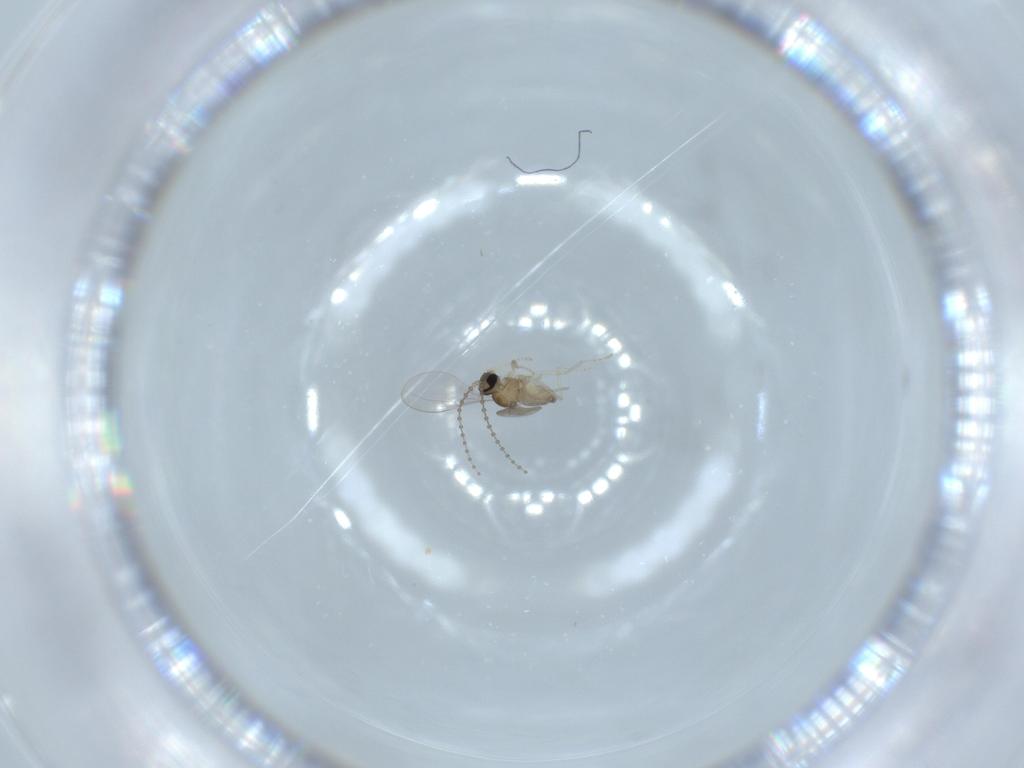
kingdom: Animalia
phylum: Arthropoda
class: Insecta
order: Diptera
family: Cecidomyiidae
